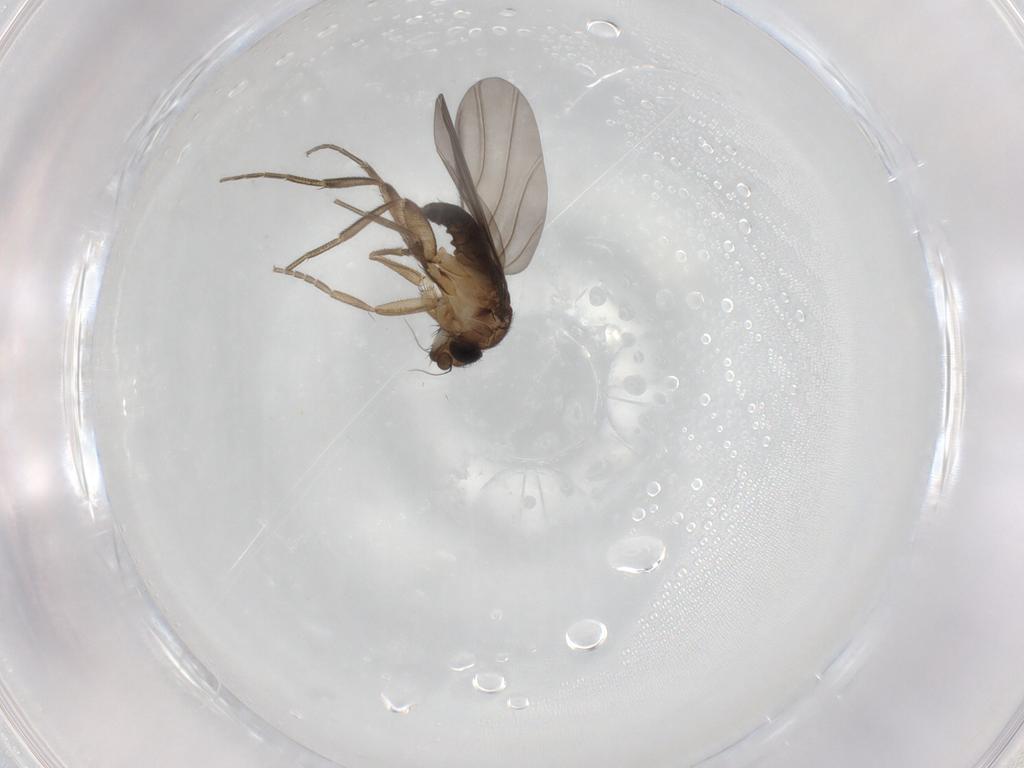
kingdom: Animalia
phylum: Arthropoda
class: Insecta
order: Diptera
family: Phoridae
